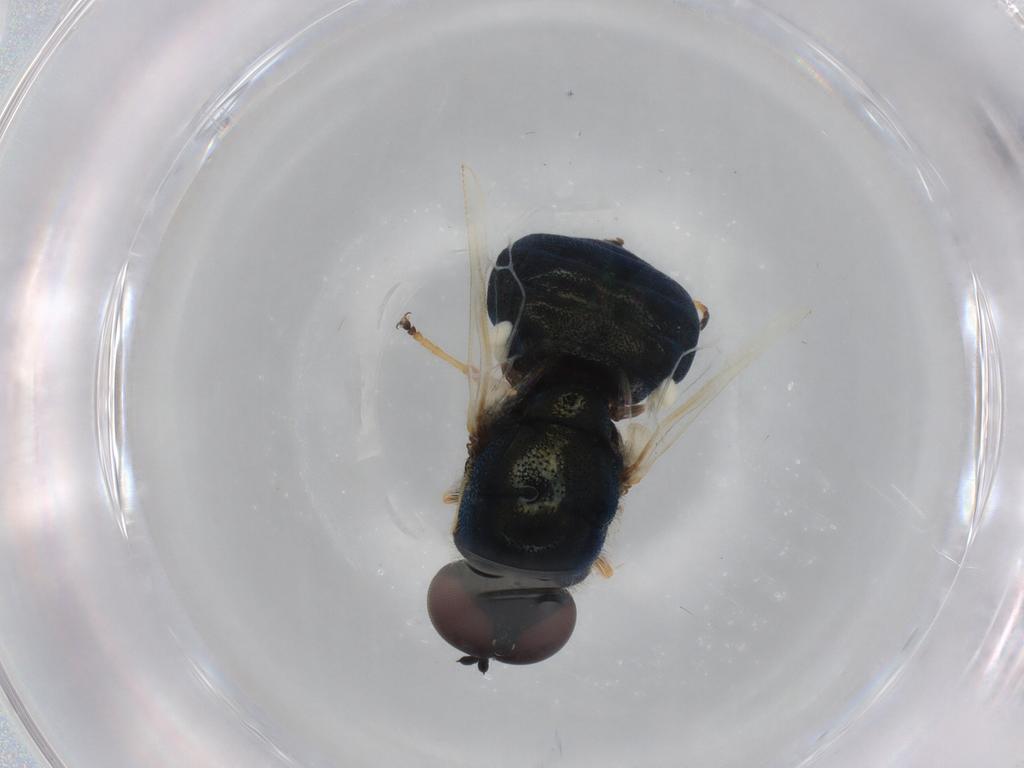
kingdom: Animalia
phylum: Arthropoda
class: Insecta
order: Diptera
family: Stratiomyidae
